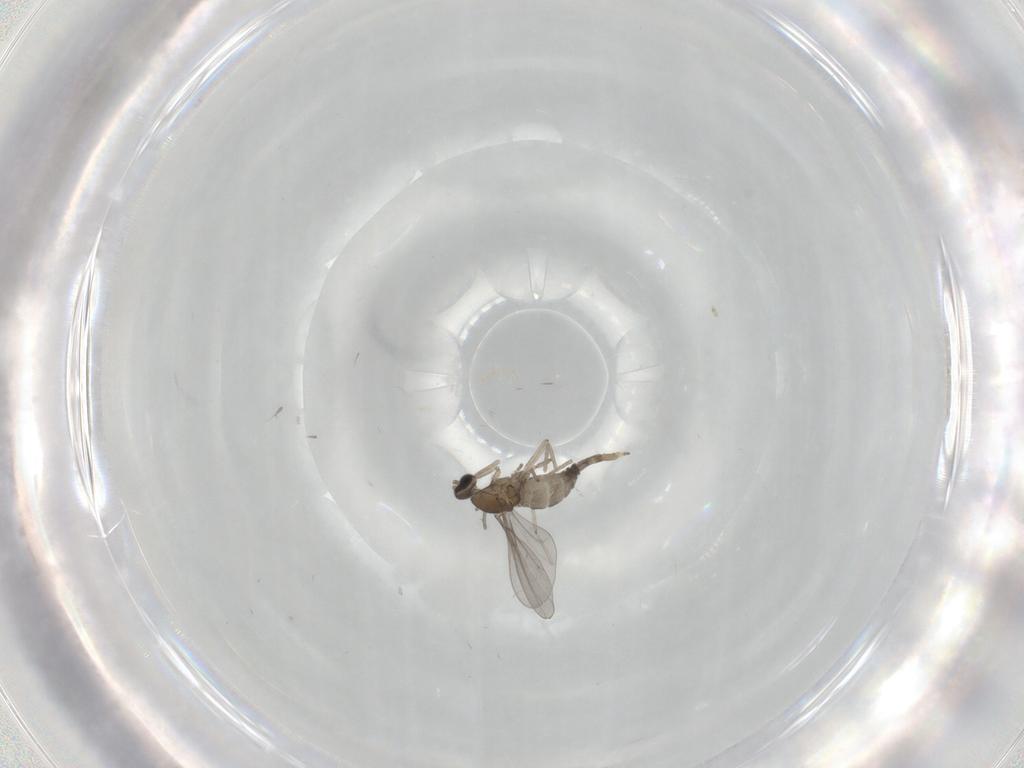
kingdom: Animalia
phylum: Arthropoda
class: Insecta
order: Diptera
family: Cecidomyiidae
